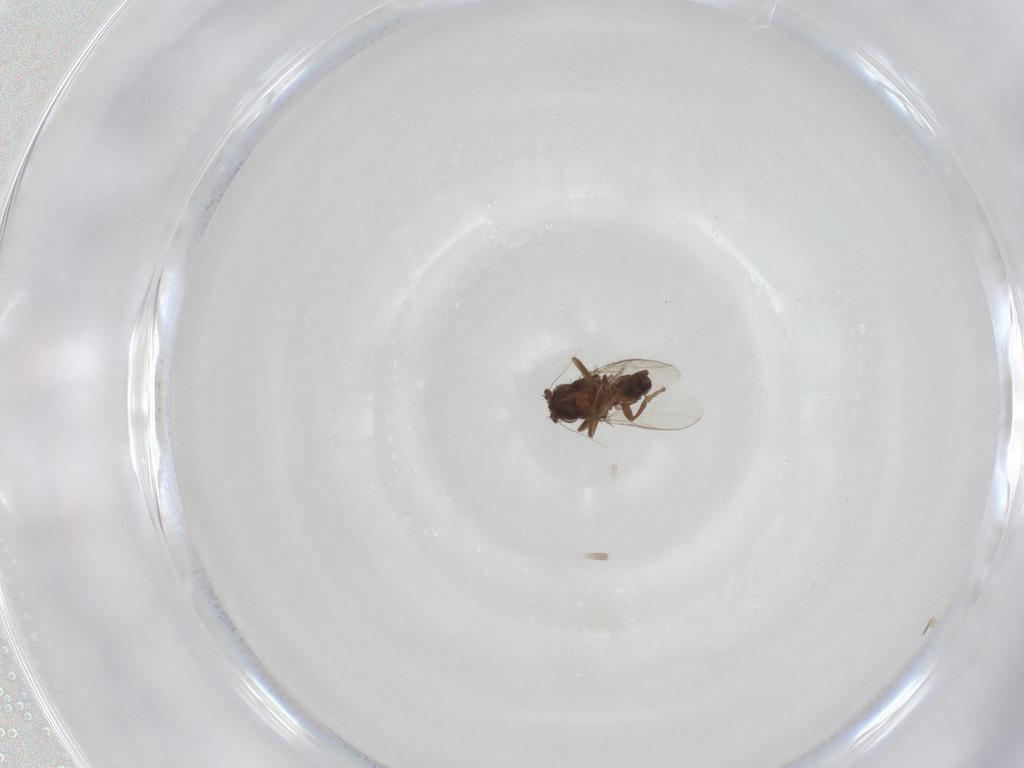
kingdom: Animalia
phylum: Arthropoda
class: Insecta
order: Diptera
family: Sphaeroceridae
